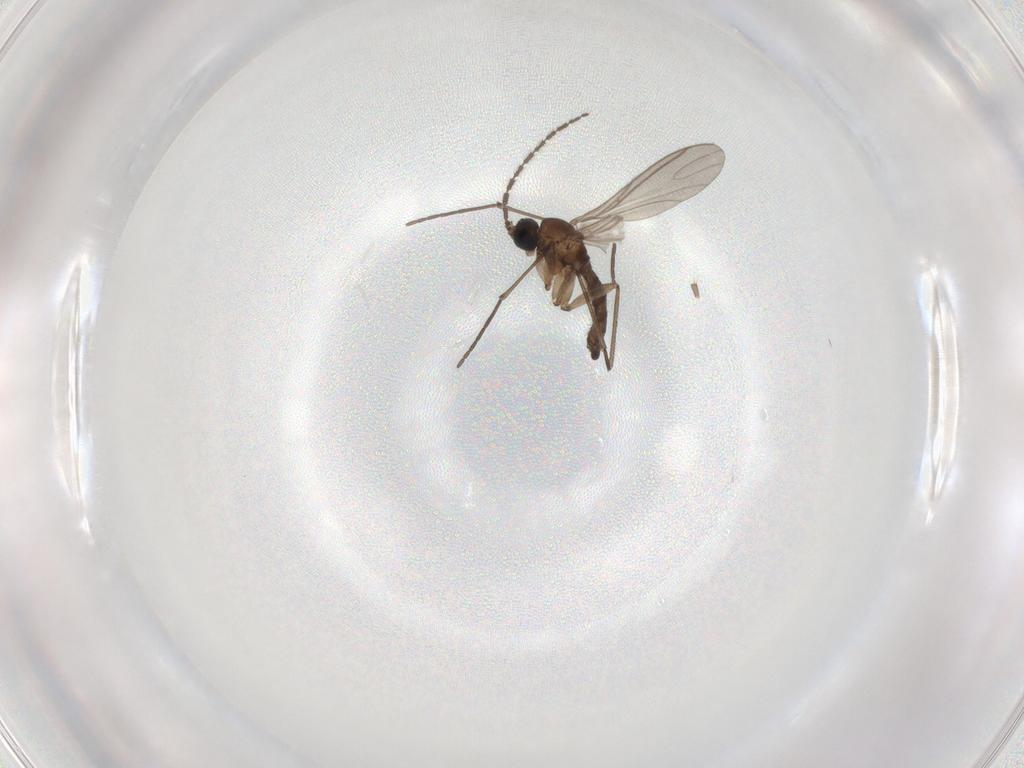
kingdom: Animalia
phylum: Arthropoda
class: Insecta
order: Diptera
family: Sciaridae
